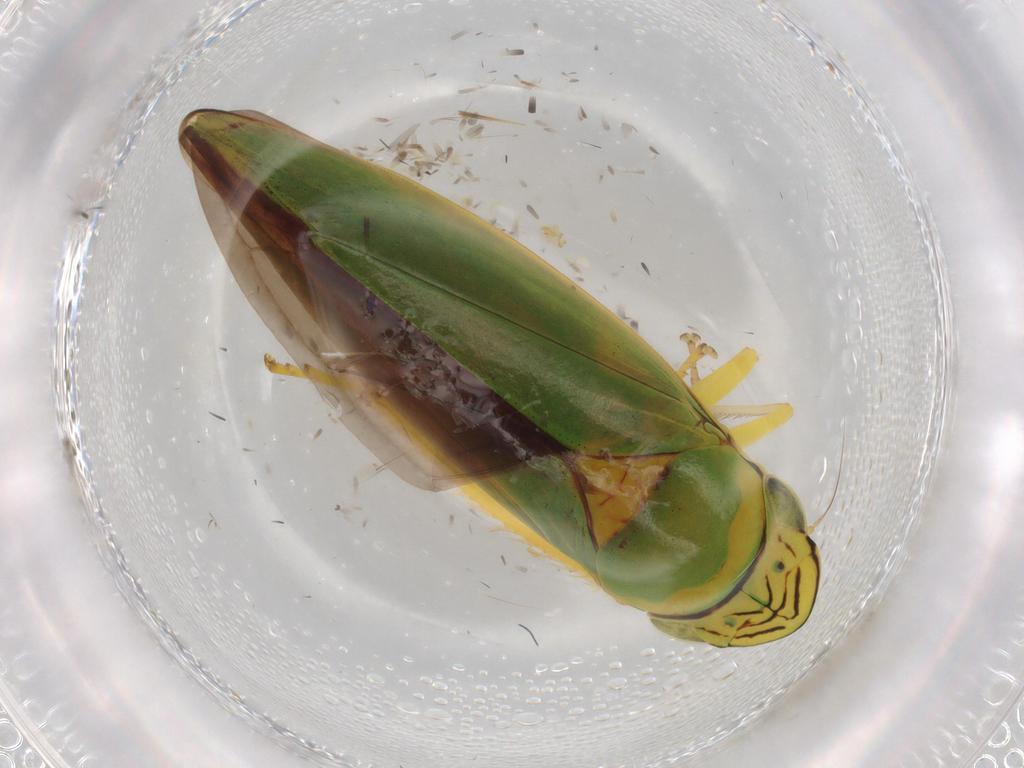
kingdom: Animalia
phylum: Arthropoda
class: Insecta
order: Hemiptera
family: Cicadellidae
